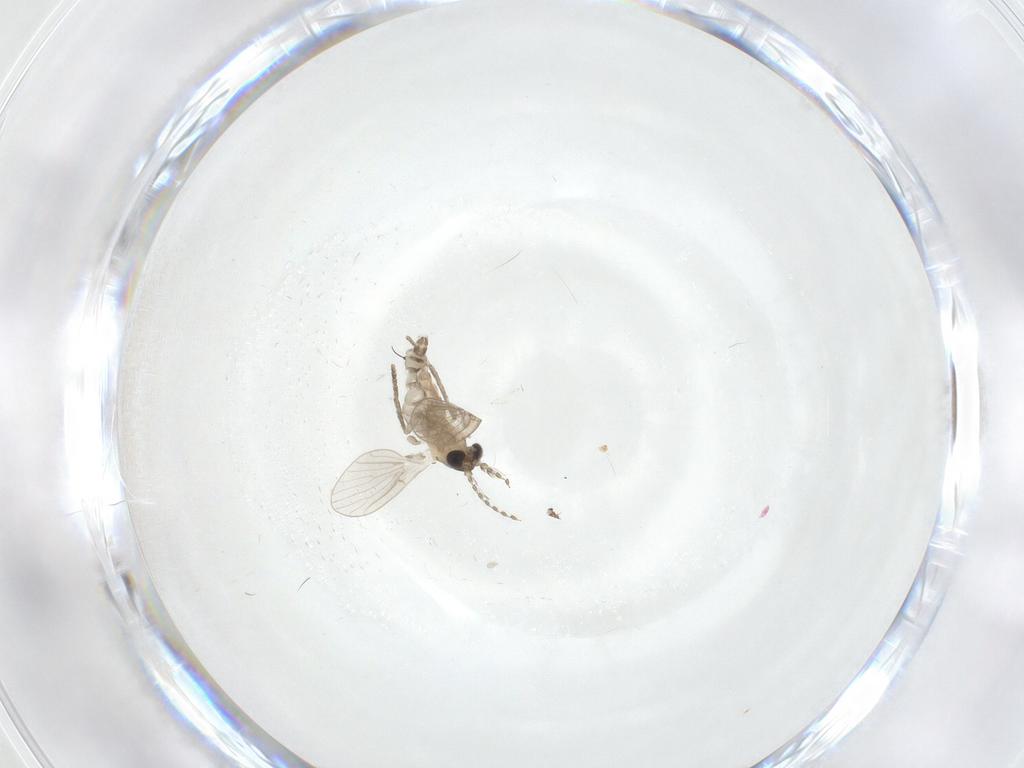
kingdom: Animalia
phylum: Arthropoda
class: Insecta
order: Diptera
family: Cecidomyiidae
